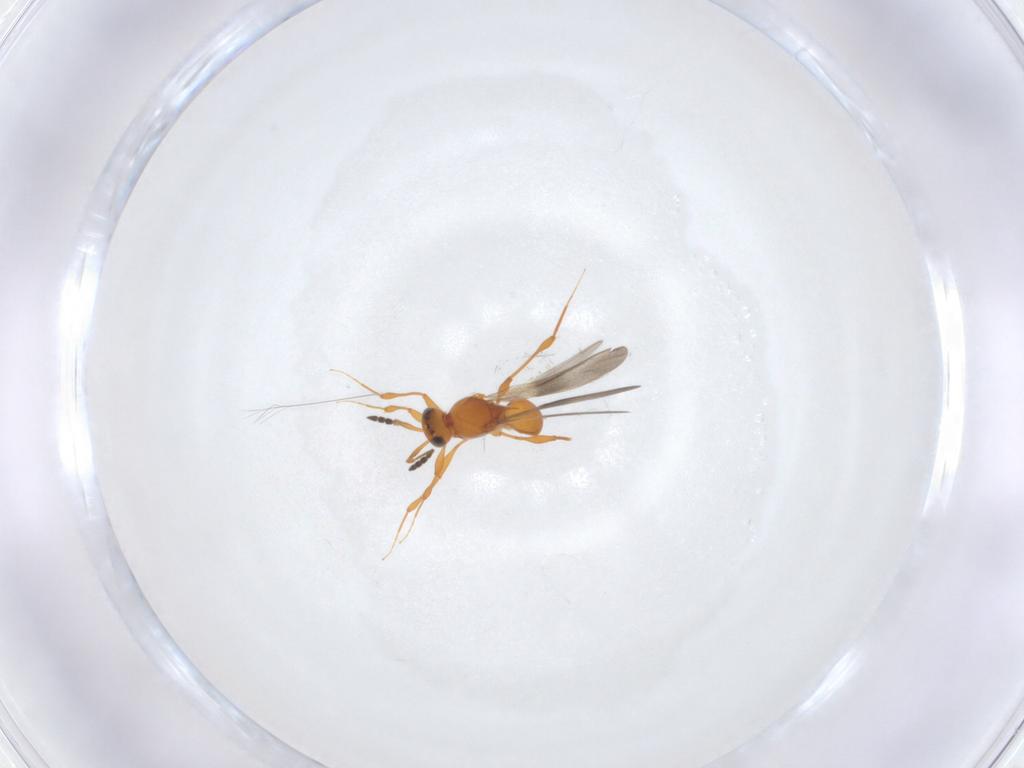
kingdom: Animalia
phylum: Arthropoda
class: Insecta
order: Hymenoptera
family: Platygastridae
